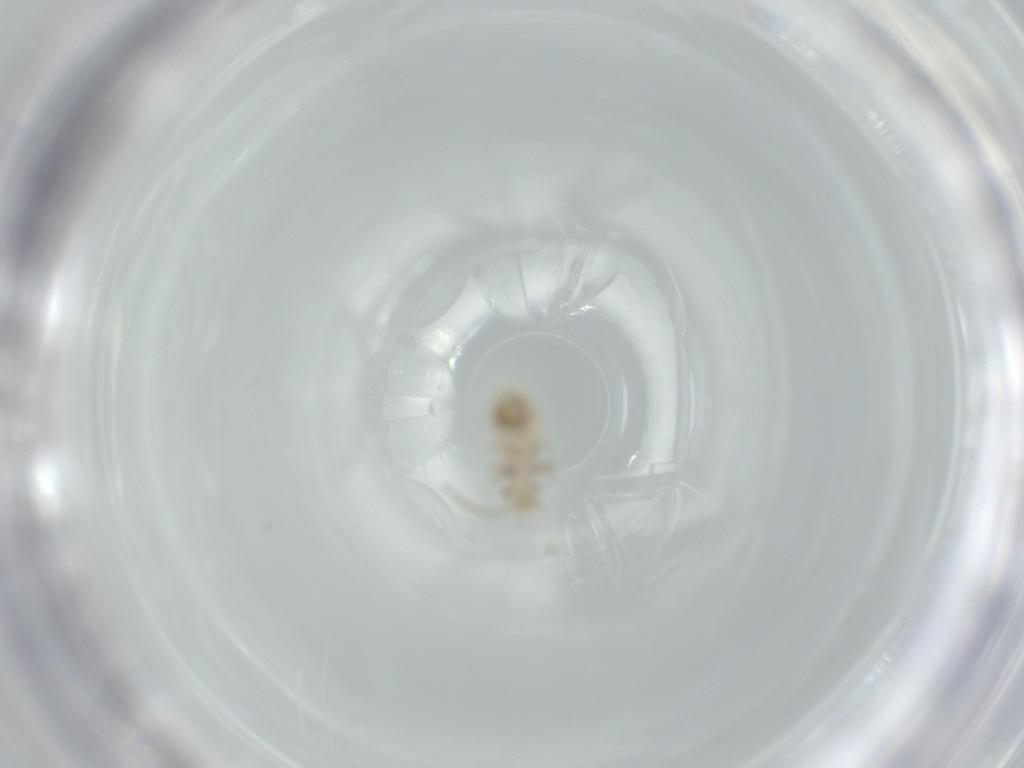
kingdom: Animalia
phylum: Arthropoda
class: Insecta
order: Psocodea
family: Caeciliusidae
